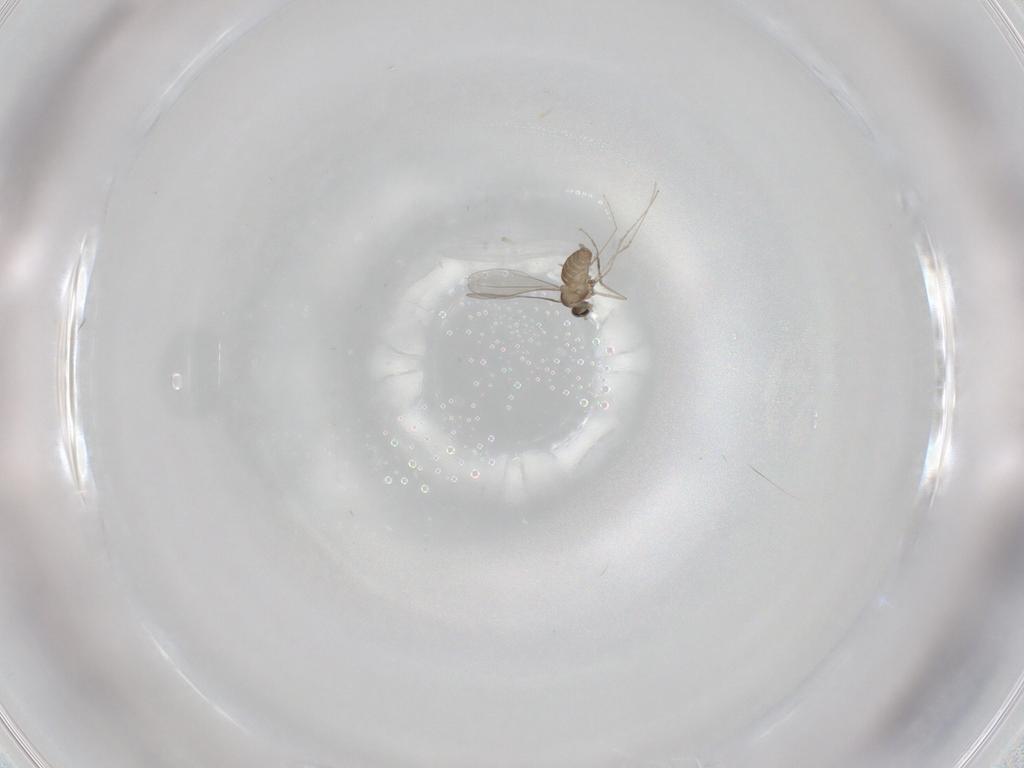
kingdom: Animalia
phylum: Arthropoda
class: Insecta
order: Diptera
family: Cecidomyiidae
